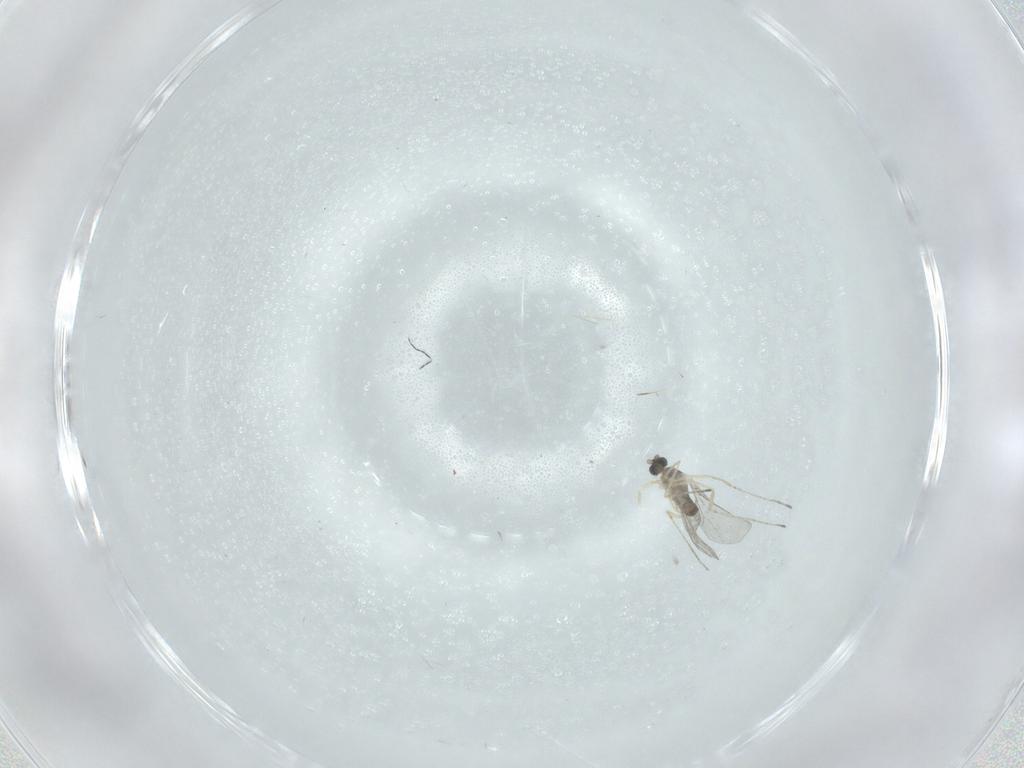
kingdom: Animalia
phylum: Arthropoda
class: Insecta
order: Diptera
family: Cecidomyiidae
